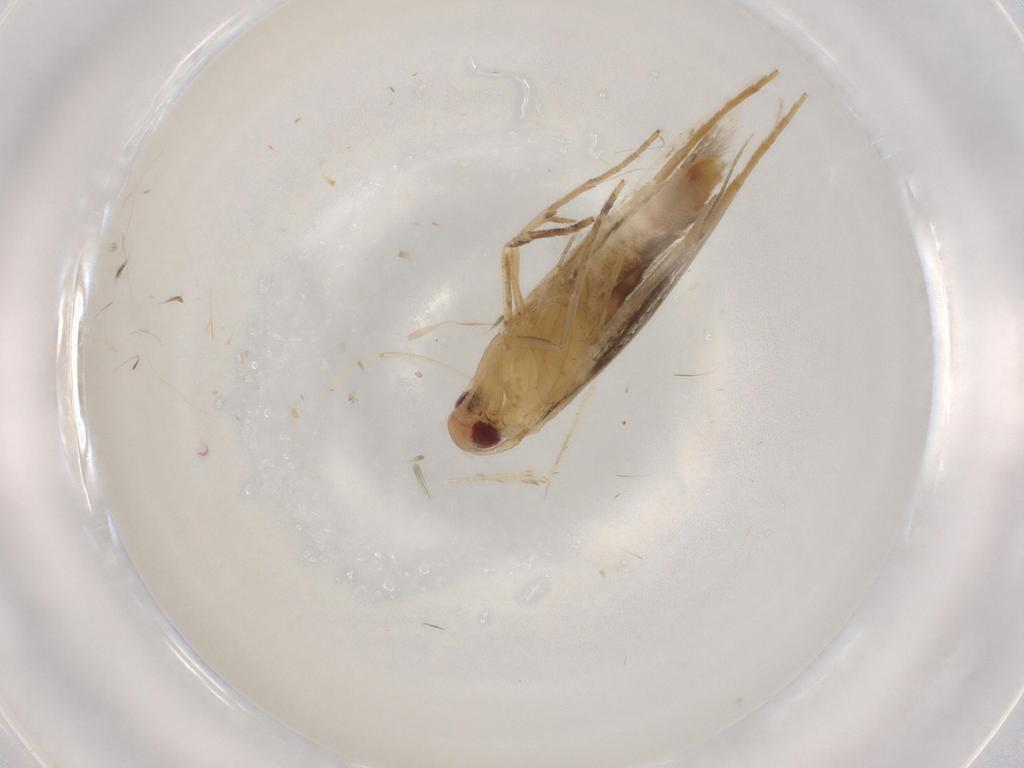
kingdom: Animalia
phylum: Arthropoda
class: Insecta
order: Lepidoptera
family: Cosmopterigidae
